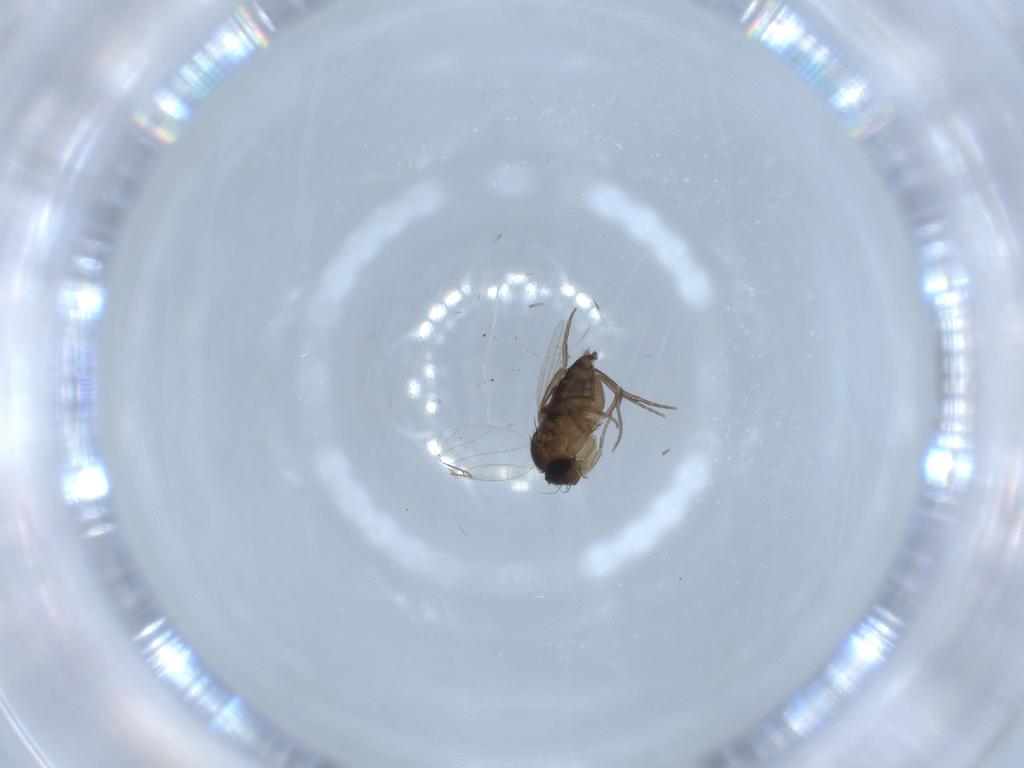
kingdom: Animalia
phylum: Arthropoda
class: Insecta
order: Diptera
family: Phoridae
